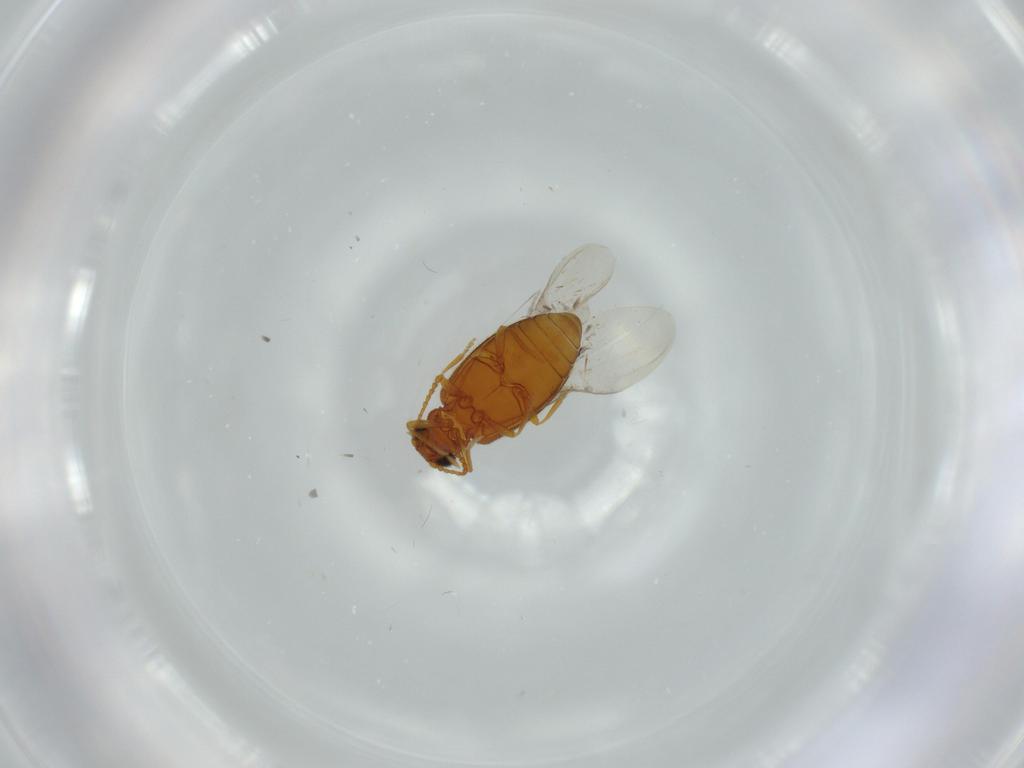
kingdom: Animalia
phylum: Arthropoda
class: Insecta
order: Coleoptera
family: Aderidae
